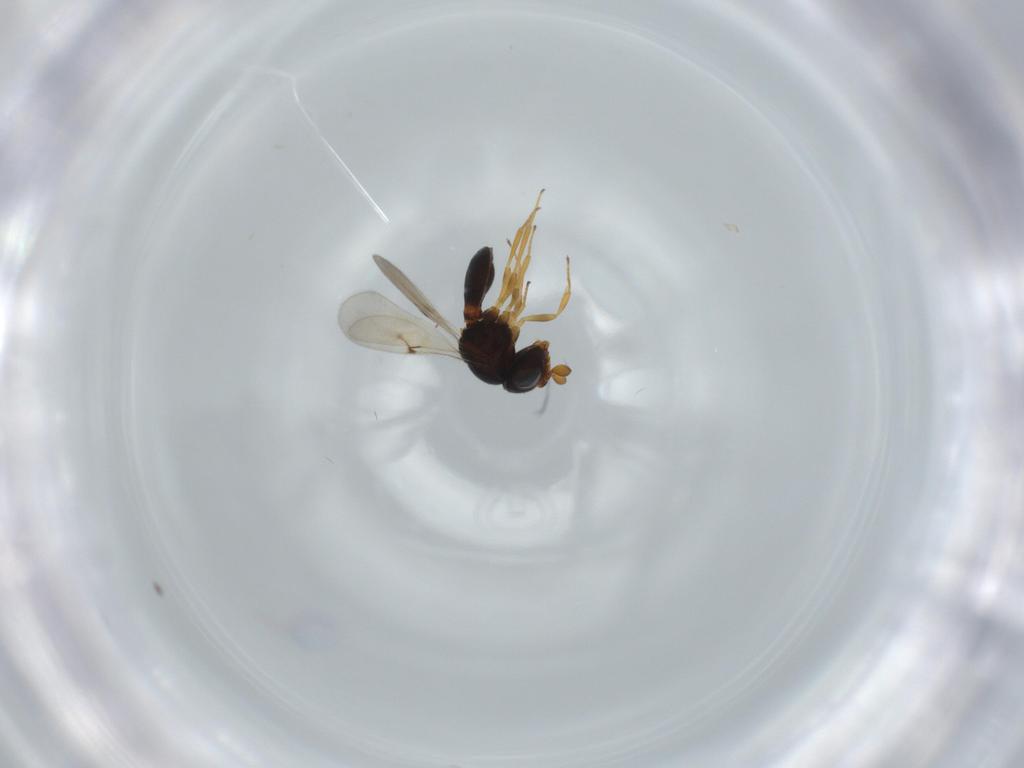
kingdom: Animalia
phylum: Arthropoda
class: Insecta
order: Hymenoptera
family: Scelionidae
